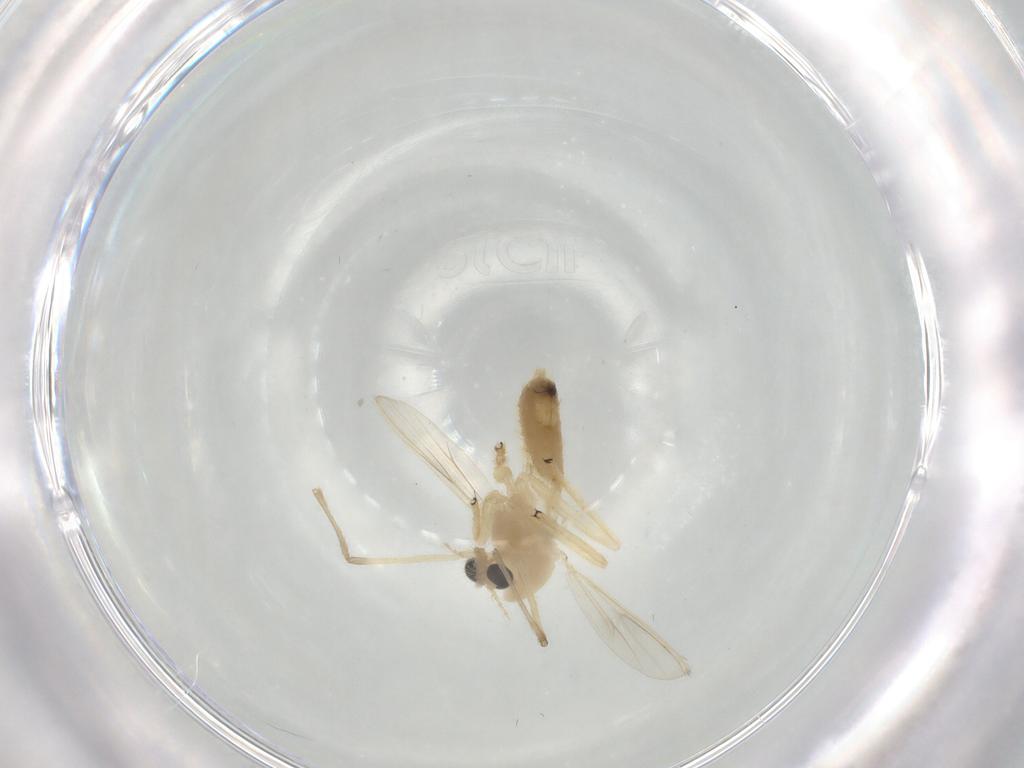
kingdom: Animalia
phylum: Arthropoda
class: Insecta
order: Diptera
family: Chironomidae
